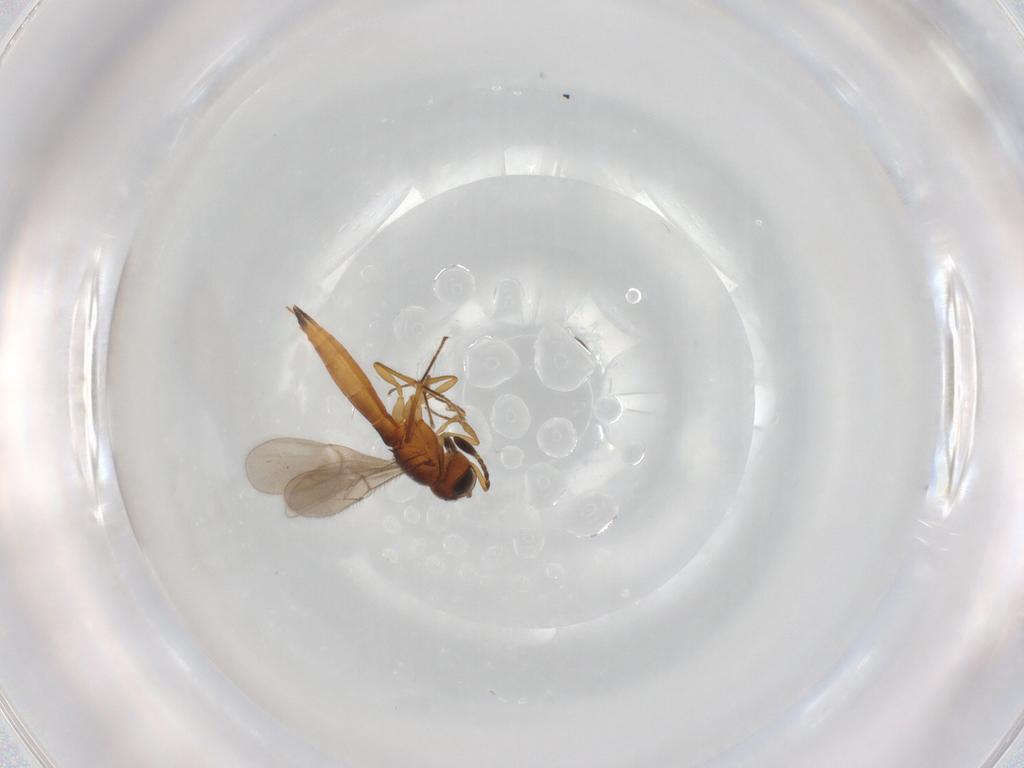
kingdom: Animalia
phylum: Arthropoda
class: Insecta
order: Hymenoptera
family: Scelionidae
